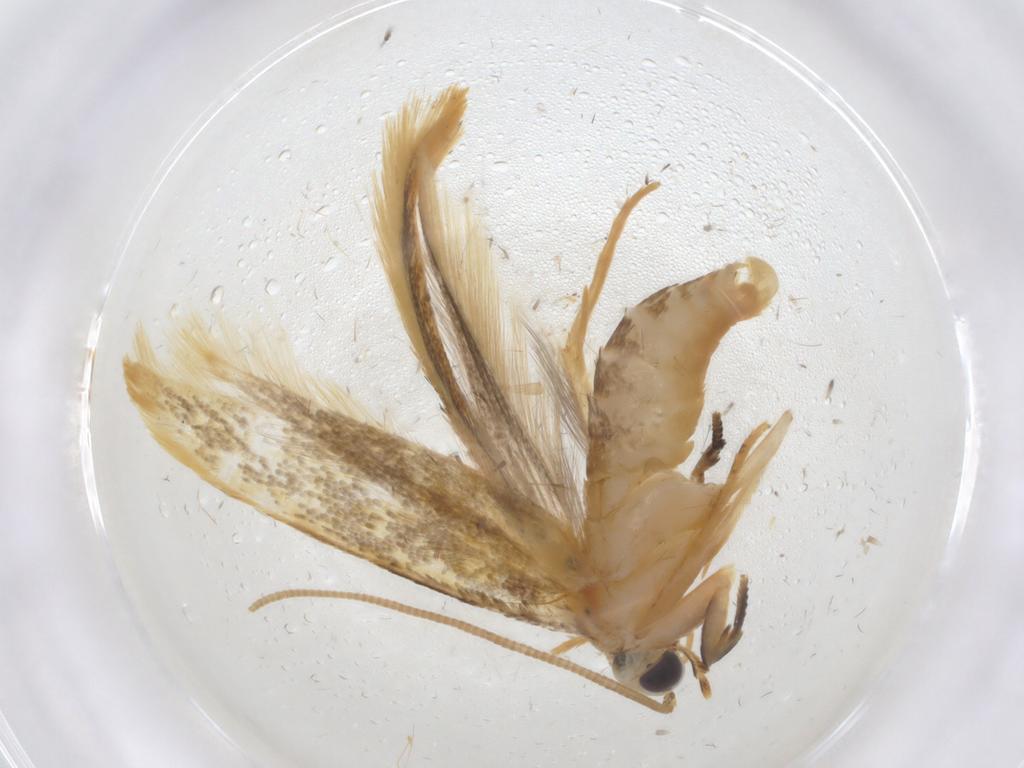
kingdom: Animalia
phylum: Arthropoda
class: Insecta
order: Lepidoptera
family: Tineidae
